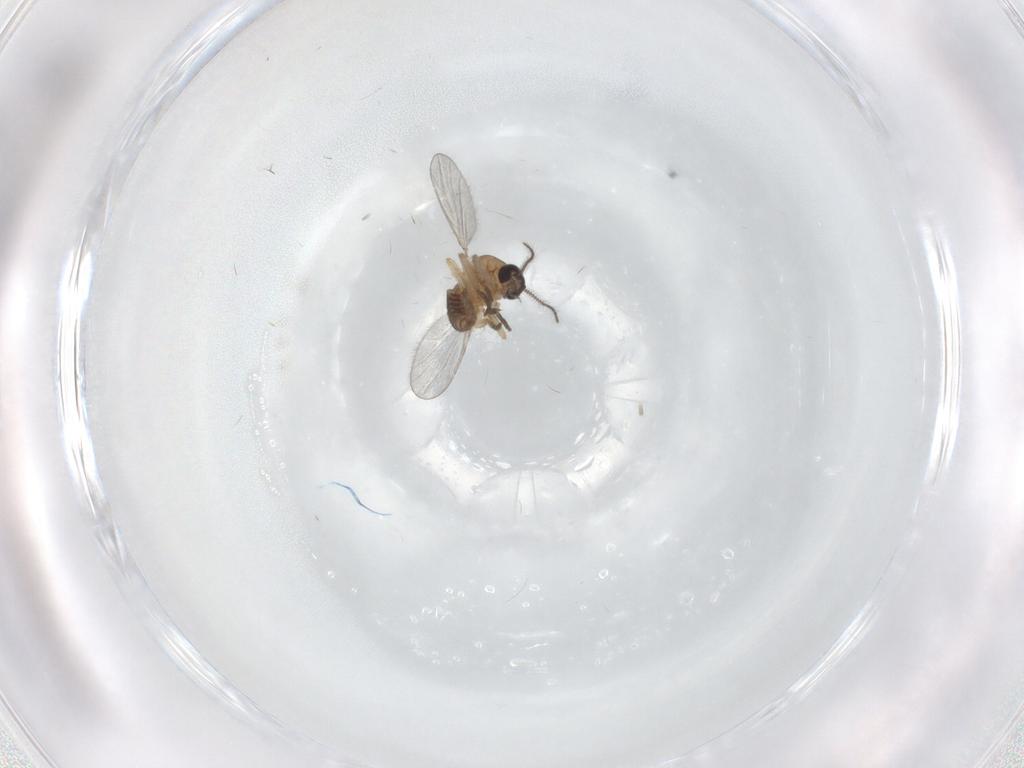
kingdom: Animalia
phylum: Arthropoda
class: Insecta
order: Diptera
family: Ceratopogonidae
